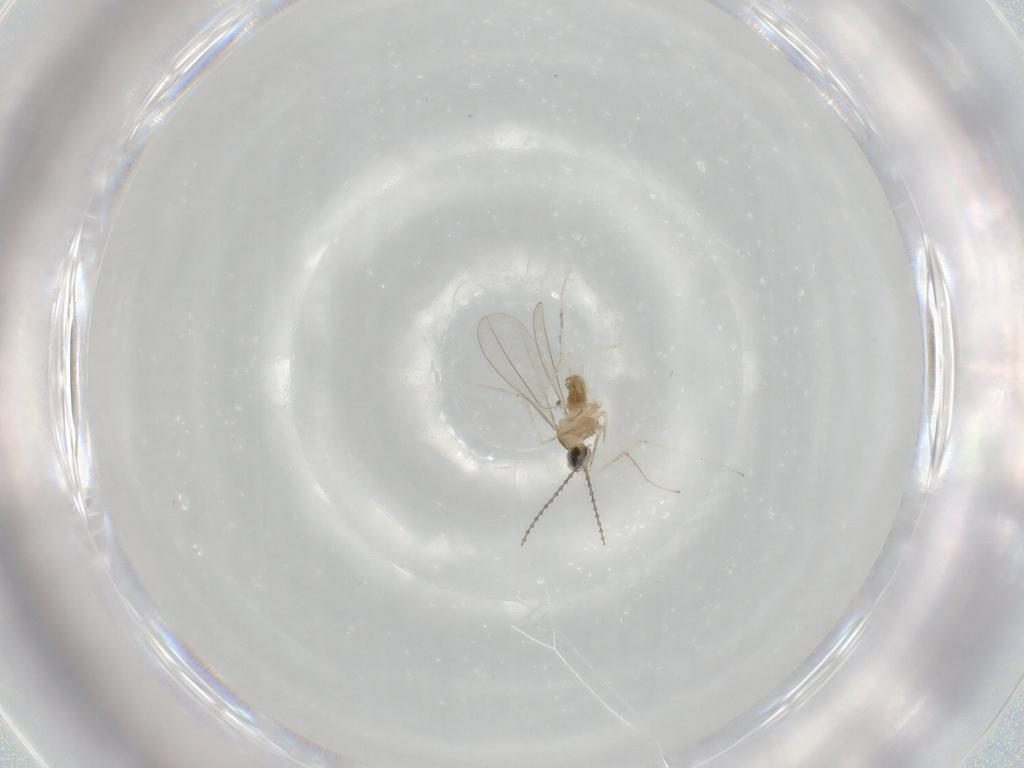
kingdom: Animalia
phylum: Arthropoda
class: Insecta
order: Diptera
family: Cecidomyiidae
